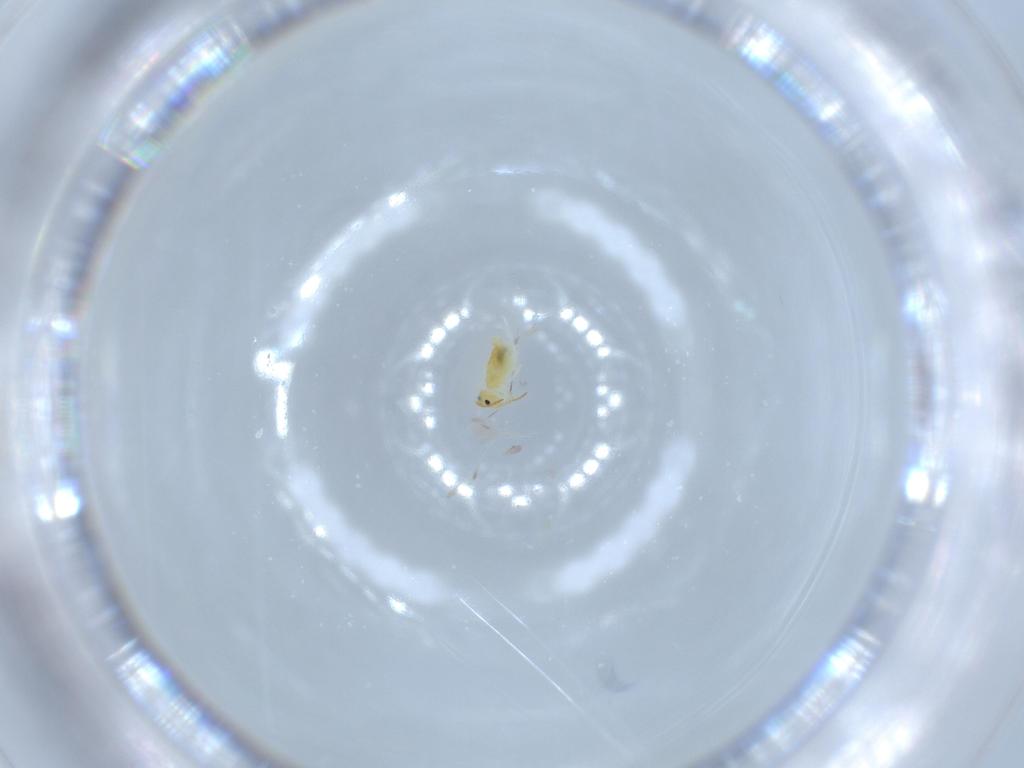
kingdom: Animalia
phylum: Arthropoda
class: Collembola
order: Symphypleona
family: Bourletiellidae
